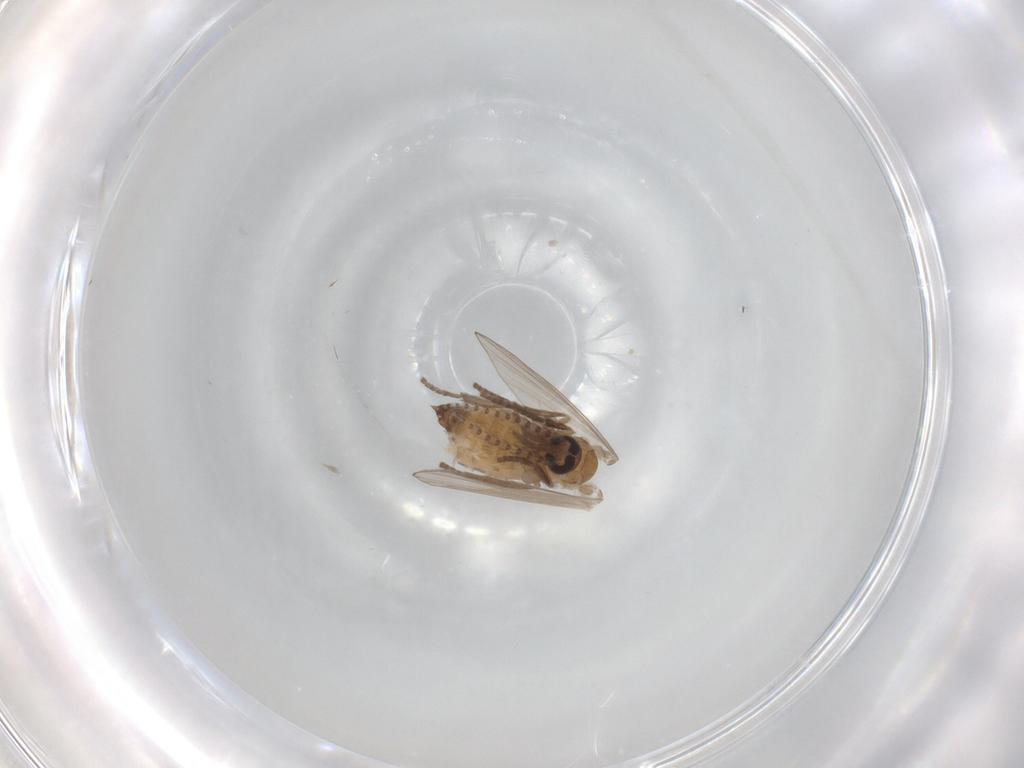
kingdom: Animalia
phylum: Arthropoda
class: Insecta
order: Diptera
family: Psychodidae
